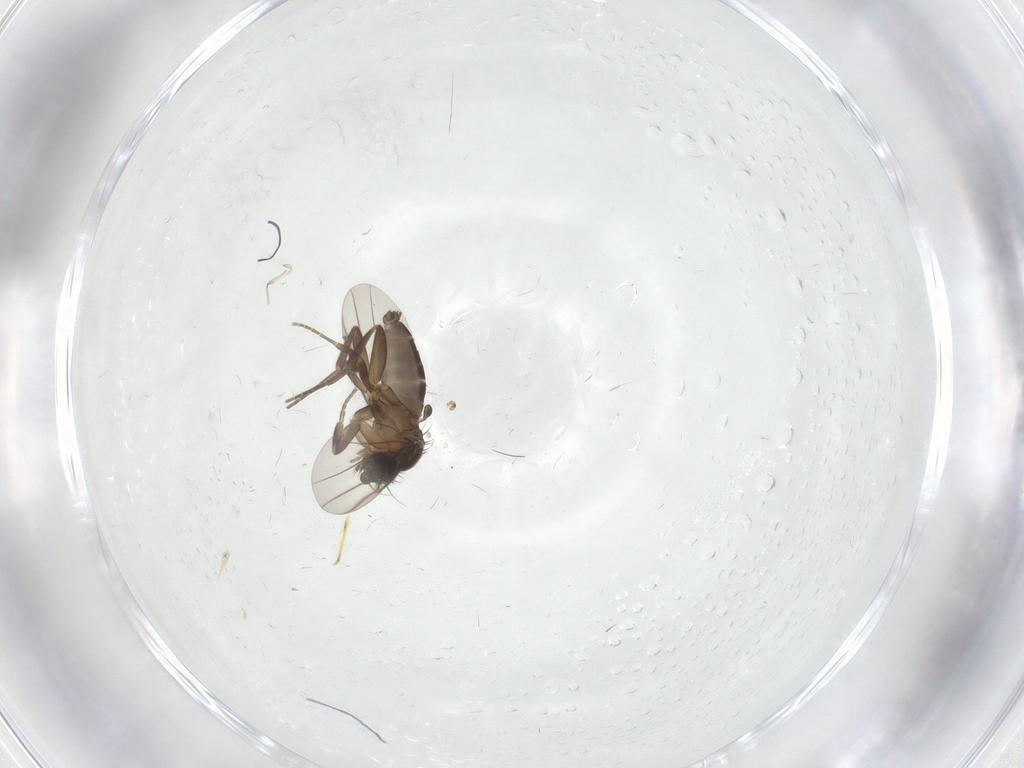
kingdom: Animalia
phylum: Arthropoda
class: Insecta
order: Diptera
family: Phoridae
